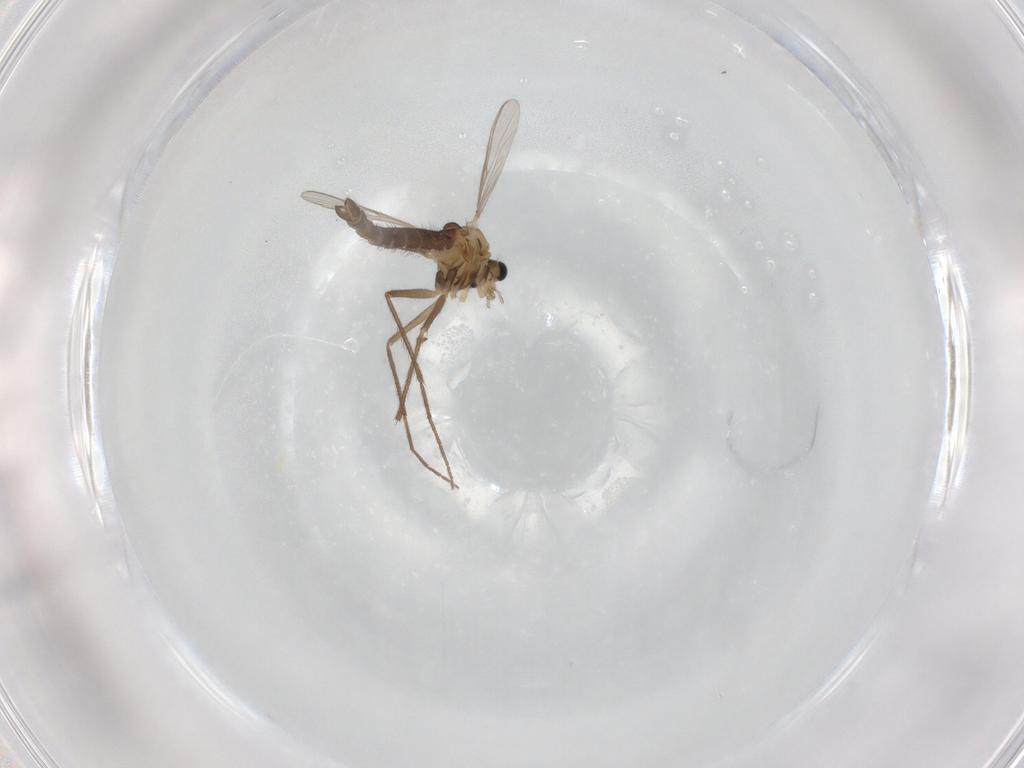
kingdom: Animalia
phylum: Arthropoda
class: Insecta
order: Diptera
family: Chironomidae
